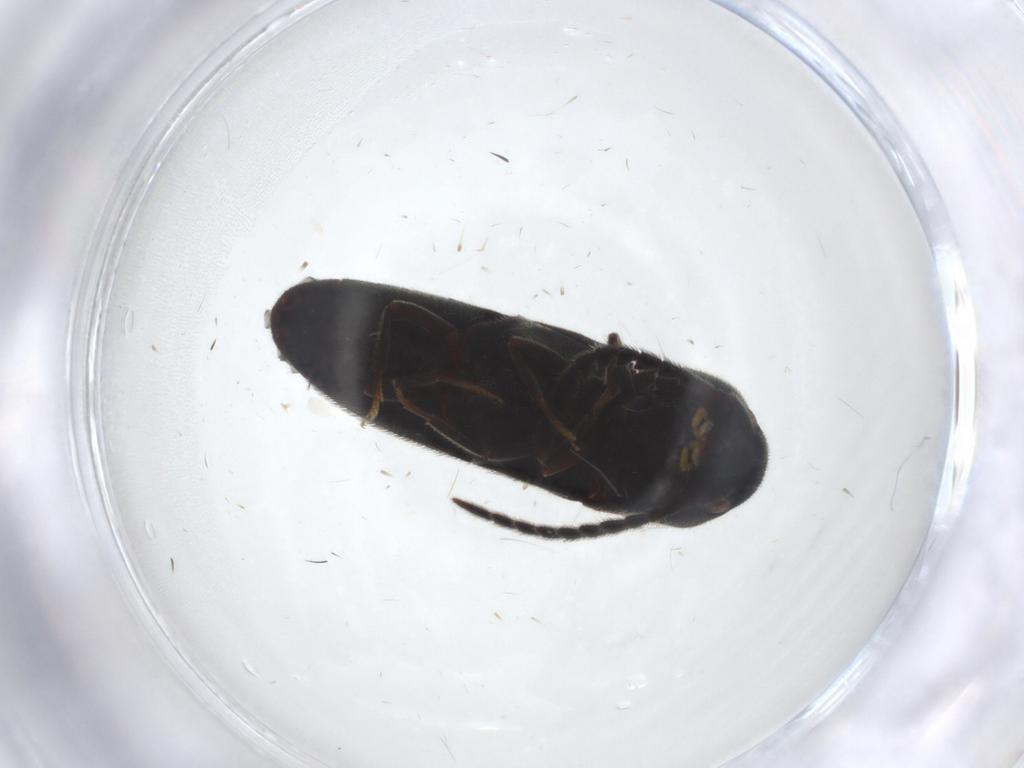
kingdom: Animalia
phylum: Arthropoda
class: Insecta
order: Coleoptera
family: Eucnemidae
